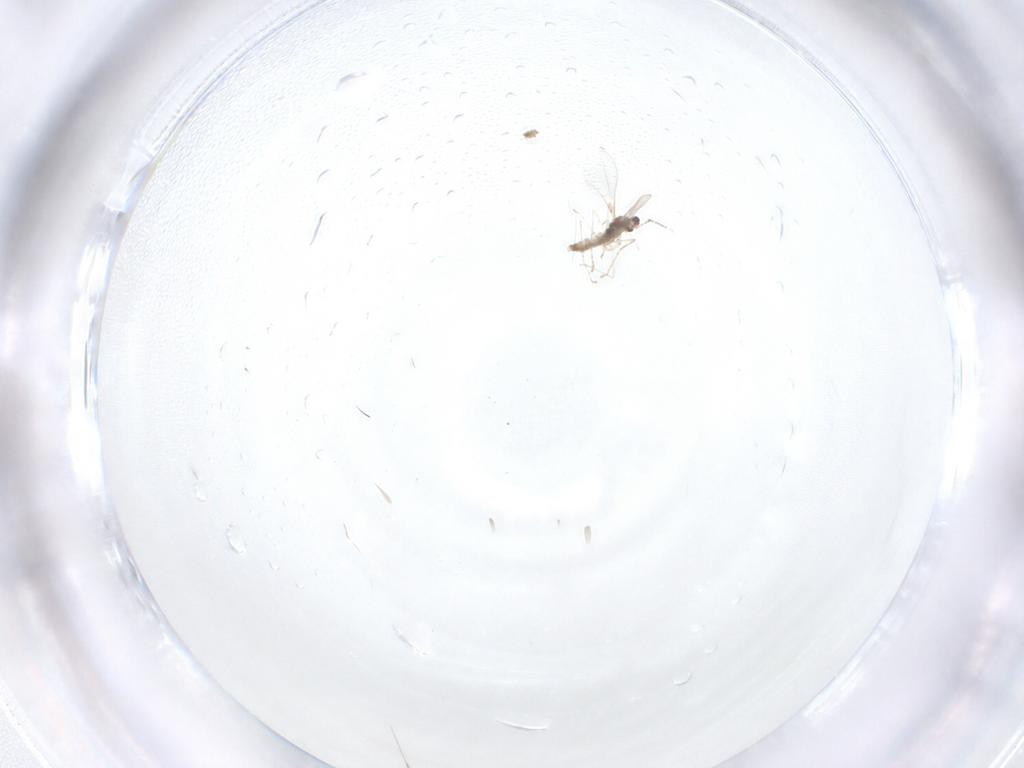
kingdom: Animalia
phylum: Arthropoda
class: Insecta
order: Diptera
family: Cecidomyiidae
